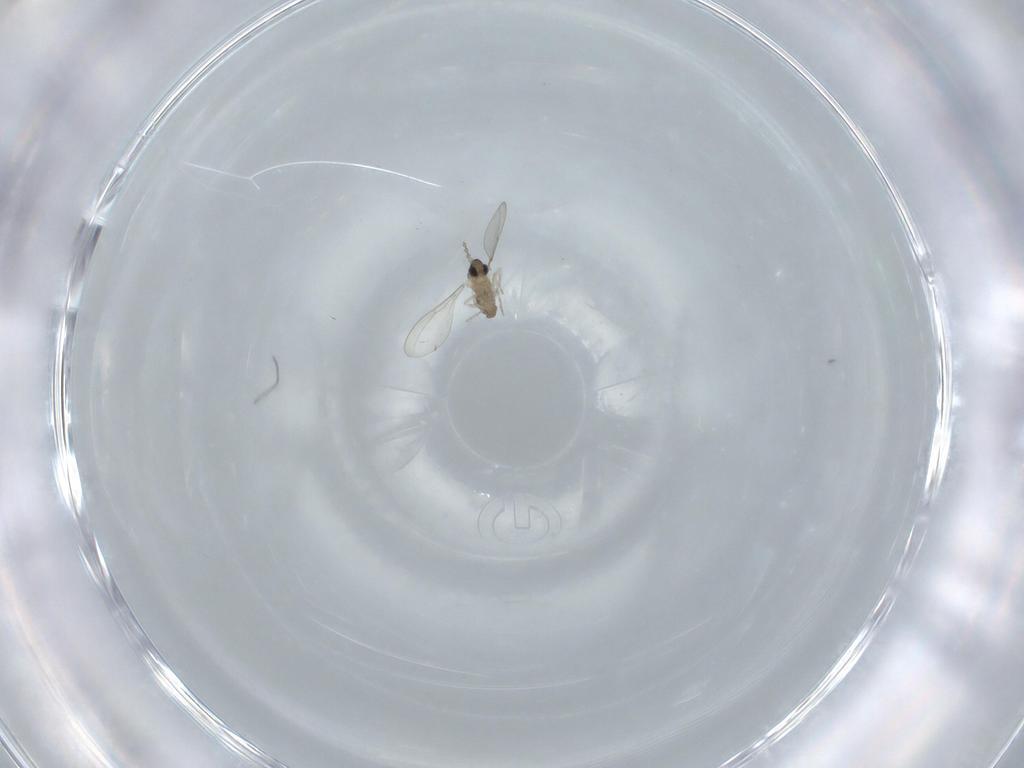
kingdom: Animalia
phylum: Arthropoda
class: Insecta
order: Diptera
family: Cecidomyiidae
